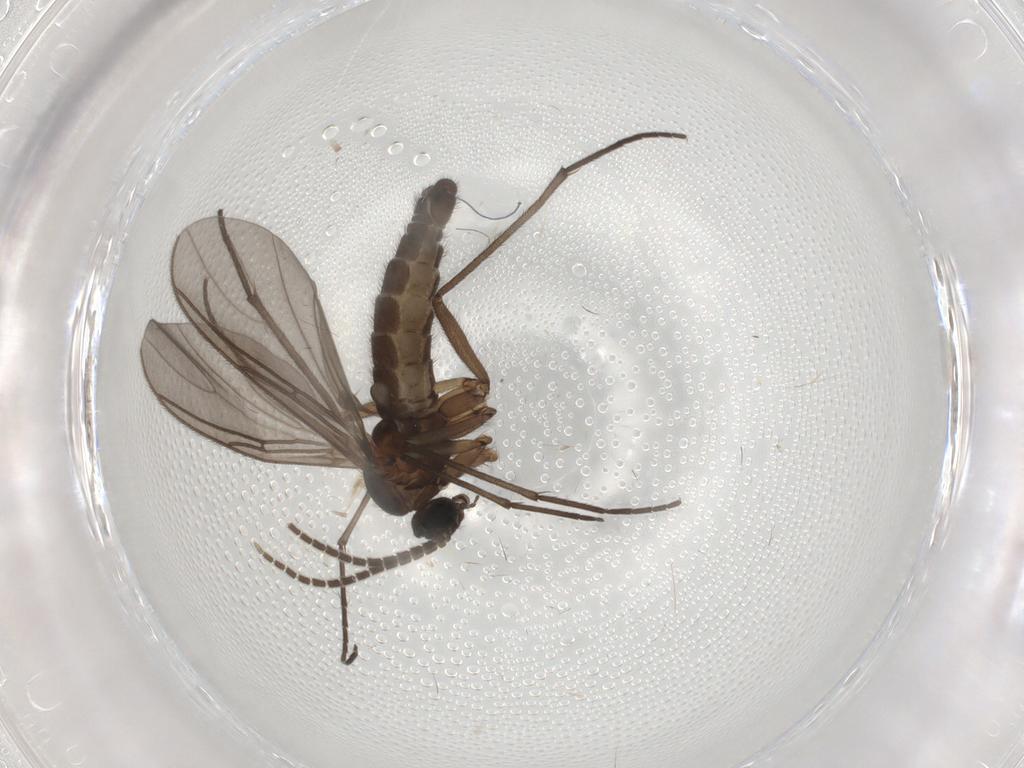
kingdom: Animalia
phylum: Arthropoda
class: Insecta
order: Diptera
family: Sciaridae
